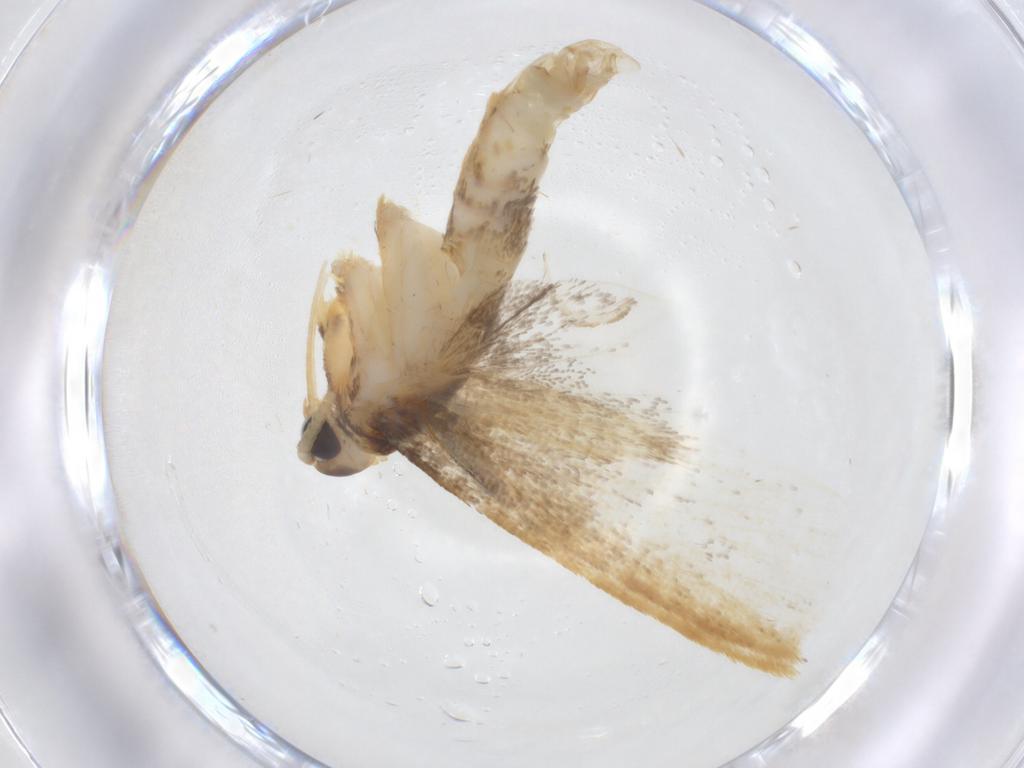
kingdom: Animalia
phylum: Arthropoda
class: Insecta
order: Lepidoptera
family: Lecithoceridae
